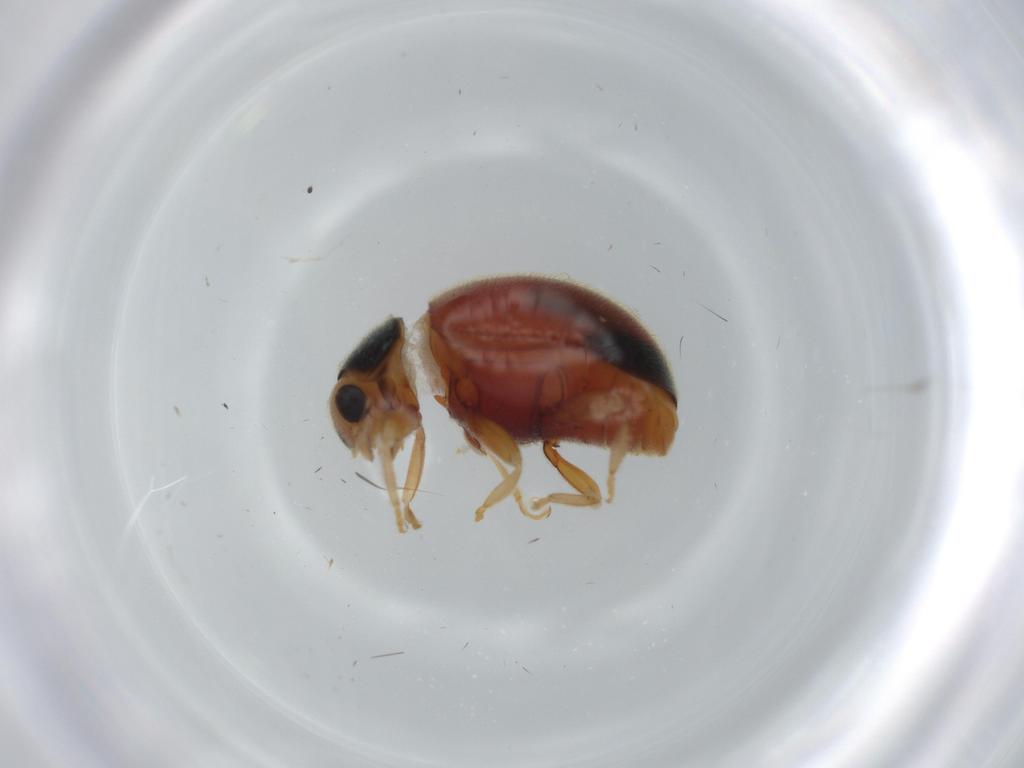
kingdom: Animalia
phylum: Arthropoda
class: Insecta
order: Coleoptera
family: Coccinellidae
